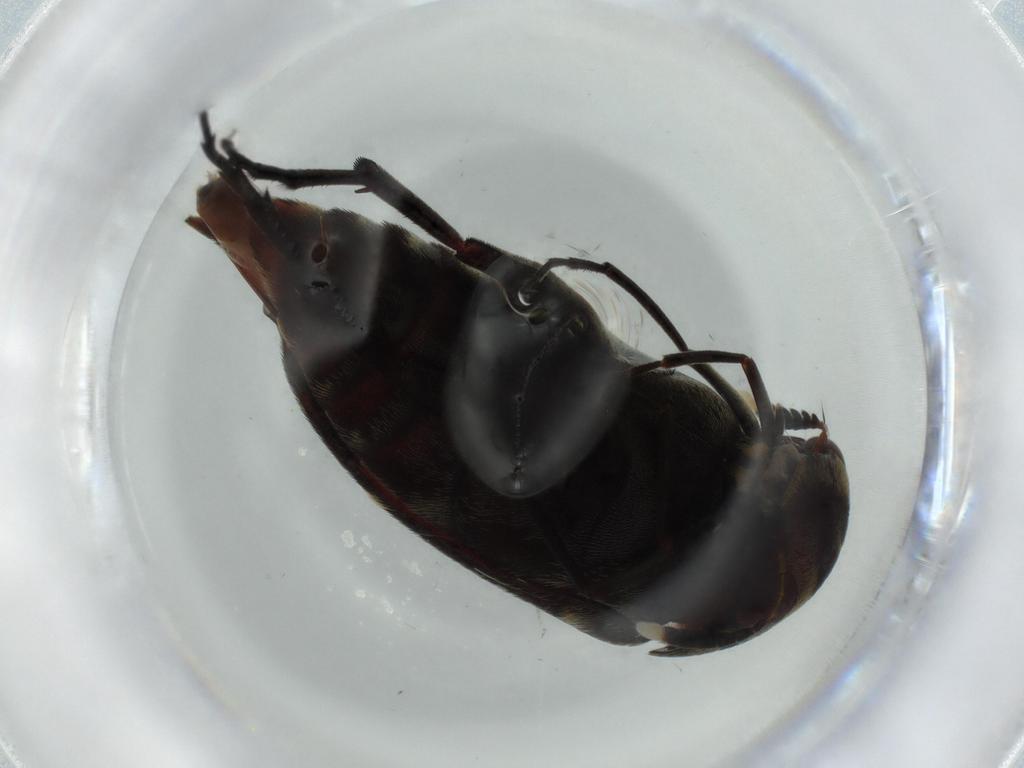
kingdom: Animalia
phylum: Arthropoda
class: Insecta
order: Coleoptera
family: Mordellidae
